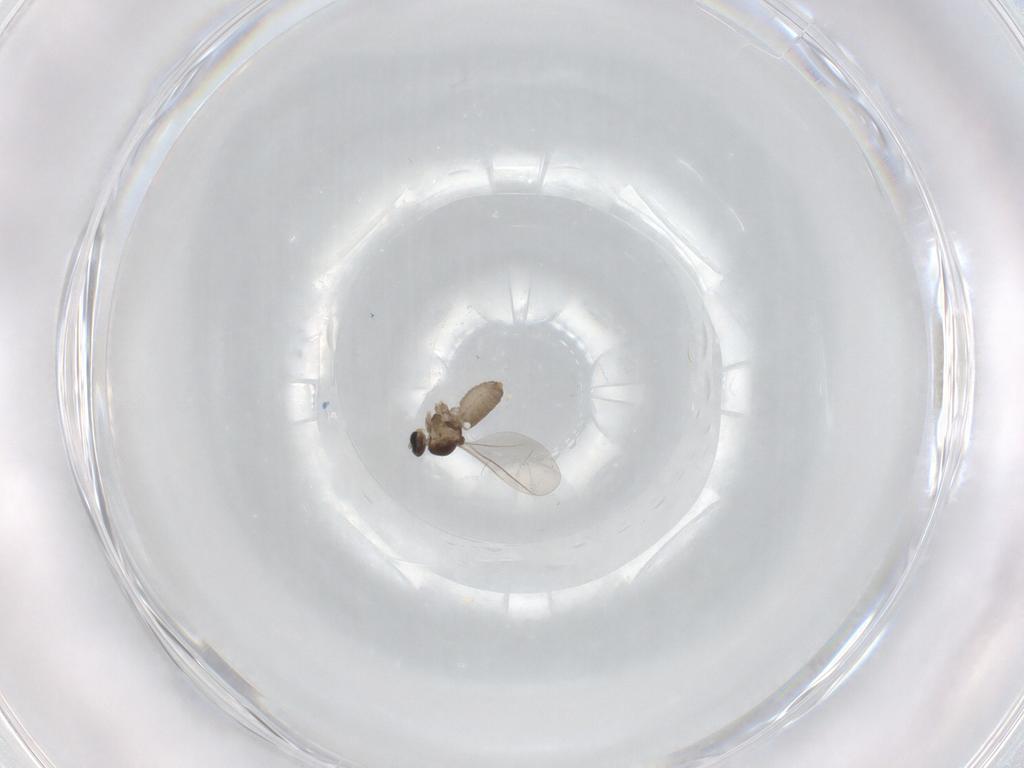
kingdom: Animalia
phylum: Arthropoda
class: Insecta
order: Diptera
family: Cecidomyiidae
